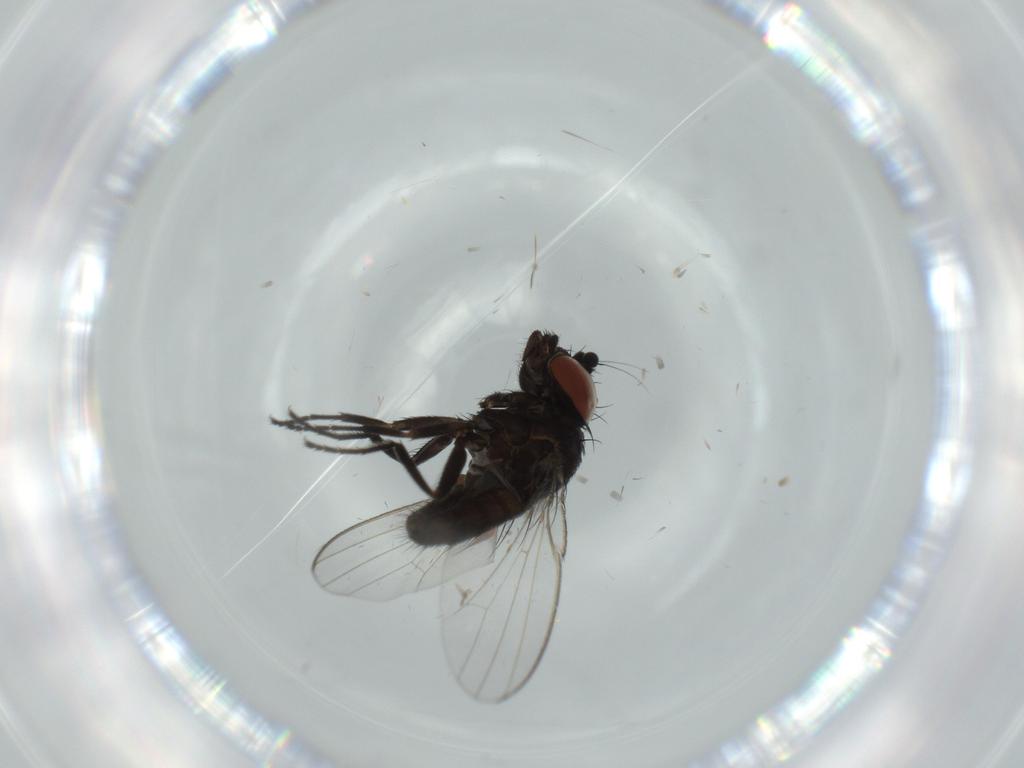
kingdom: Animalia
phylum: Arthropoda
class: Insecta
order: Diptera
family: Milichiidae
